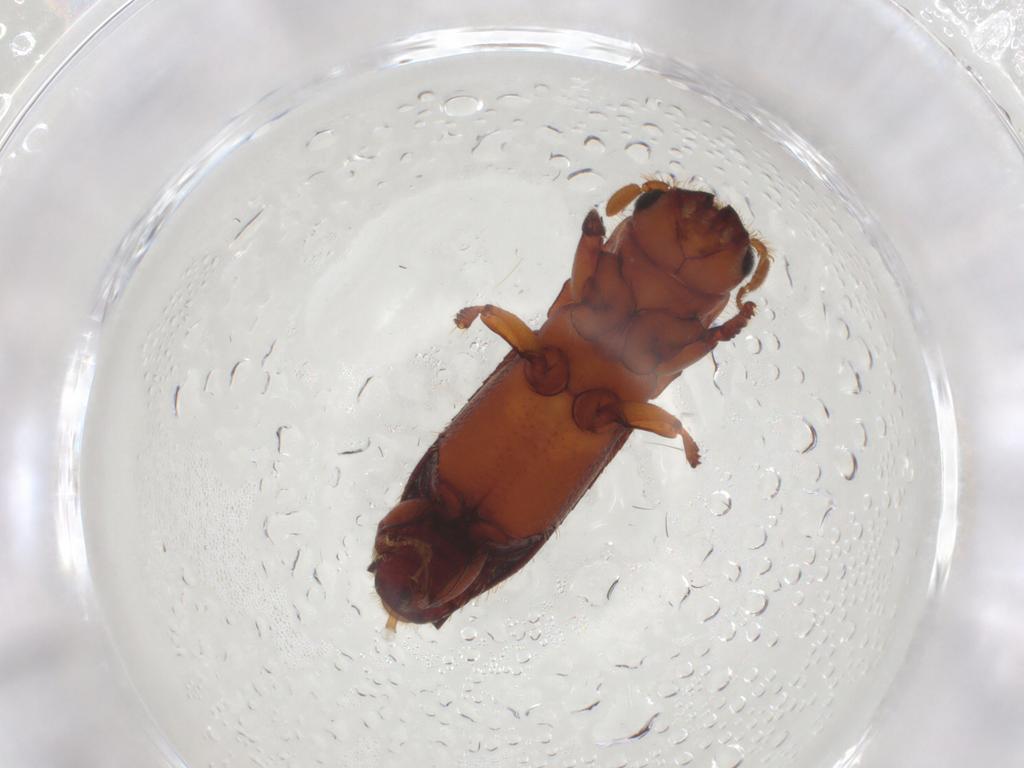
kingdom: Animalia
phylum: Arthropoda
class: Insecta
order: Coleoptera
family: Curculionidae
